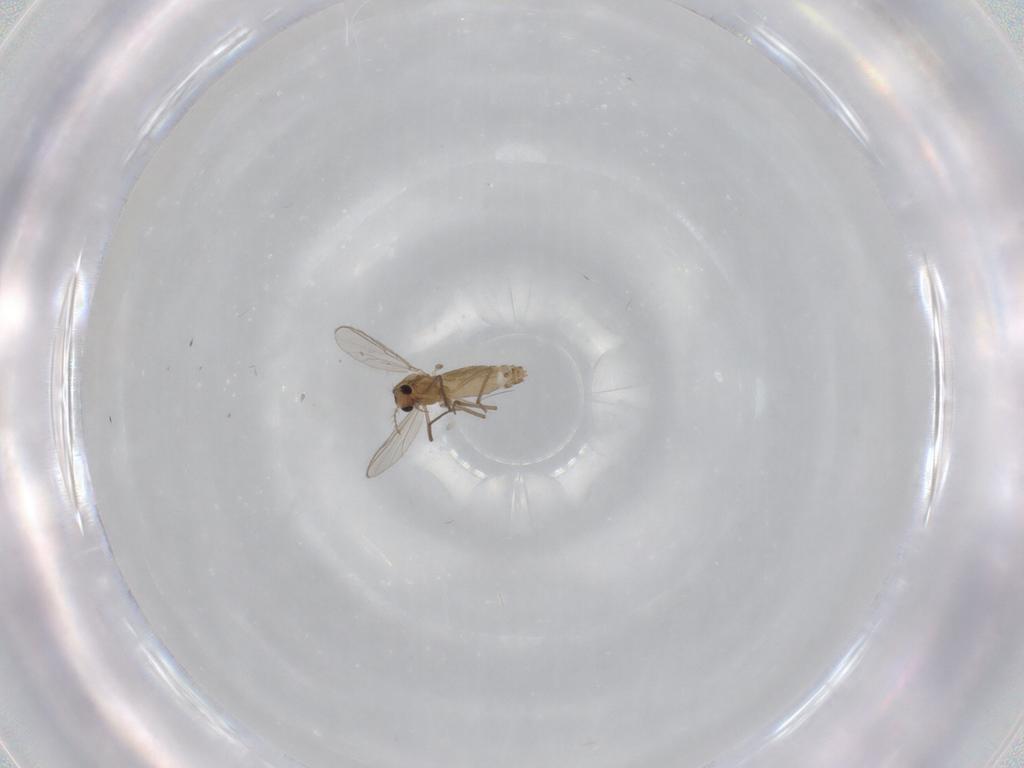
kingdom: Animalia
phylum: Arthropoda
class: Insecta
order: Diptera
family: Chironomidae
